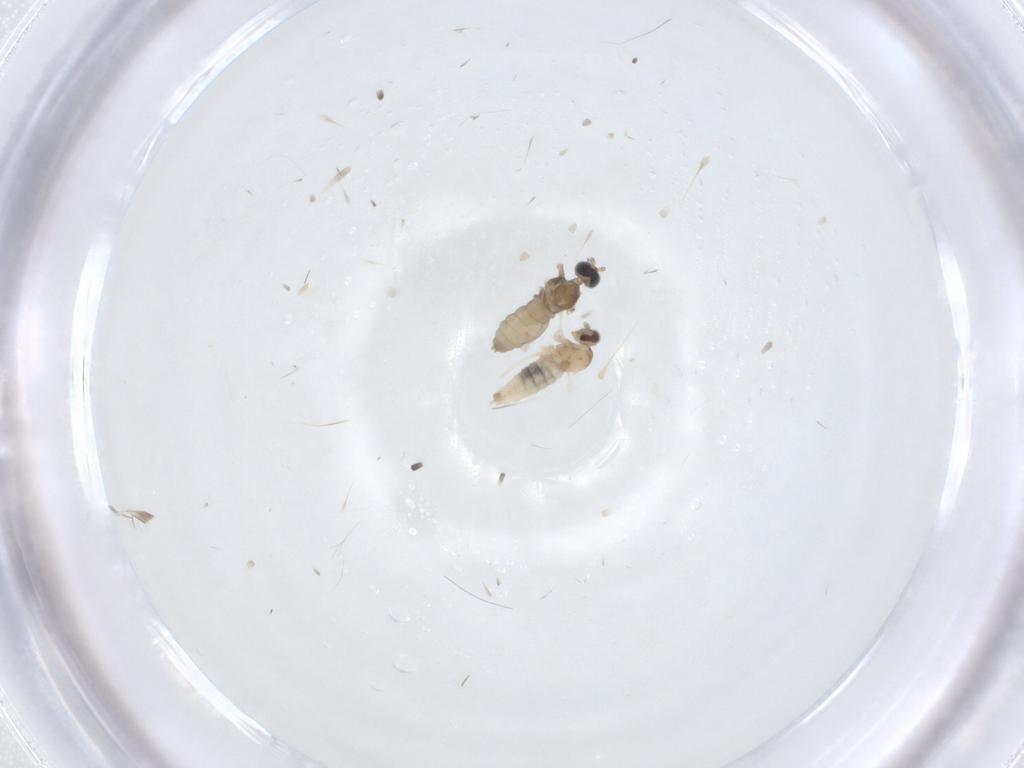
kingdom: Animalia
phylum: Arthropoda
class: Insecta
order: Diptera
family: Cecidomyiidae
